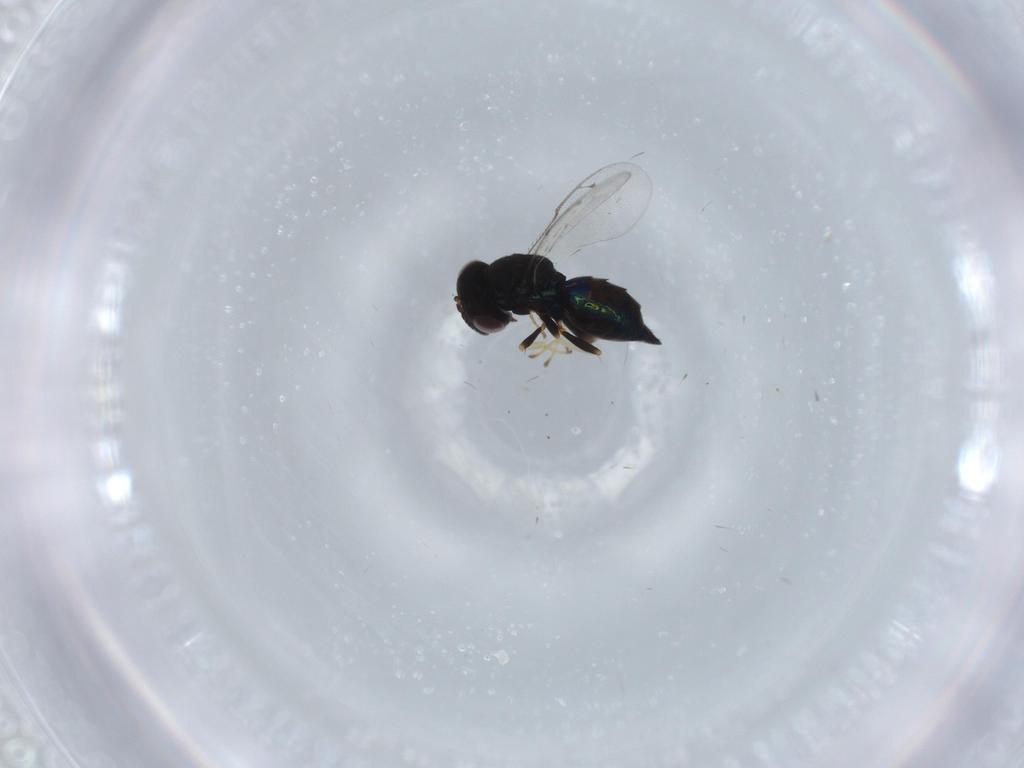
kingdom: Animalia
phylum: Arthropoda
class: Insecta
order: Hymenoptera
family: Pteromalidae
